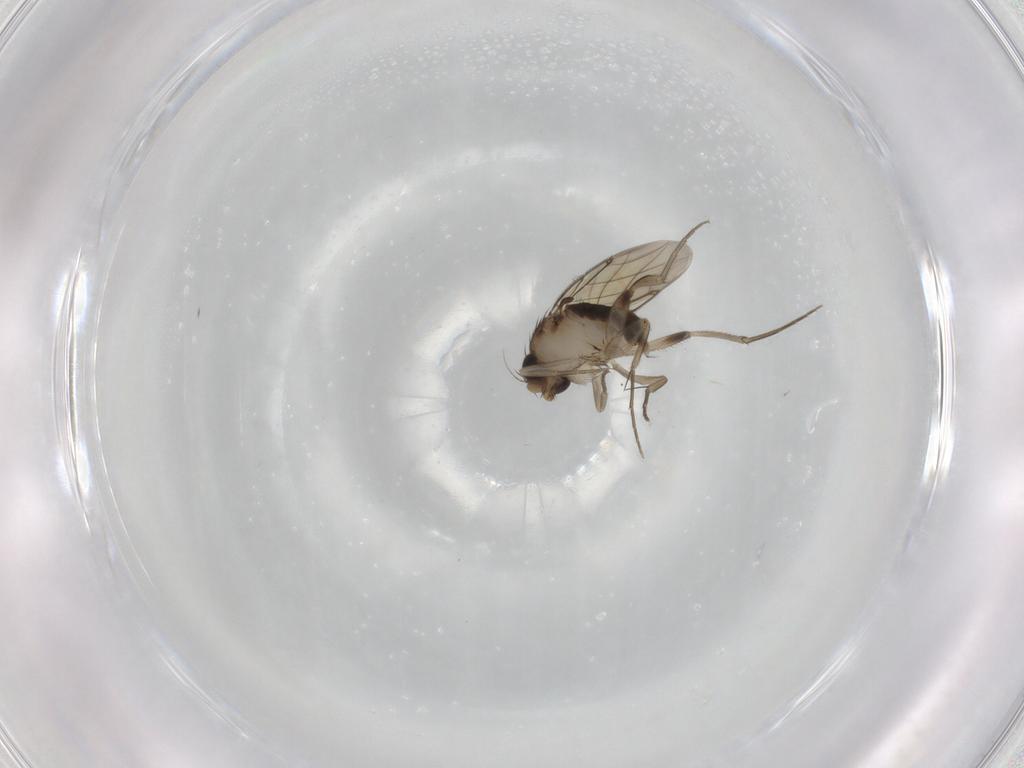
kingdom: Animalia
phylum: Arthropoda
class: Insecta
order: Diptera
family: Phoridae
